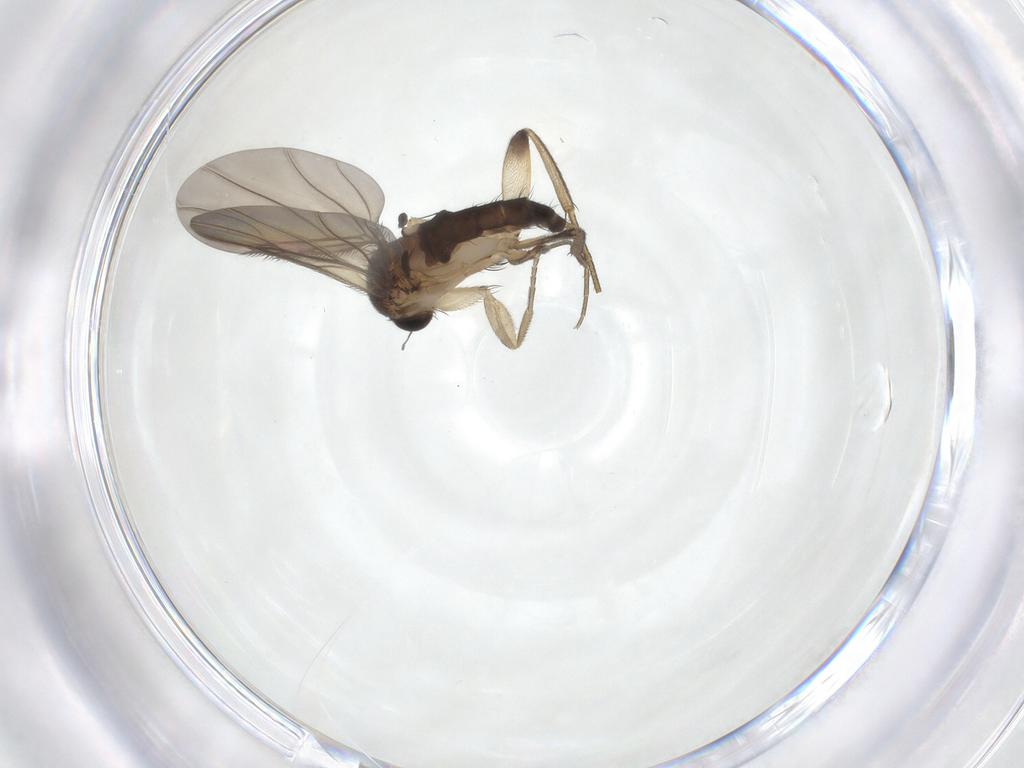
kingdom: Animalia
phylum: Arthropoda
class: Insecta
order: Diptera
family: Phoridae
